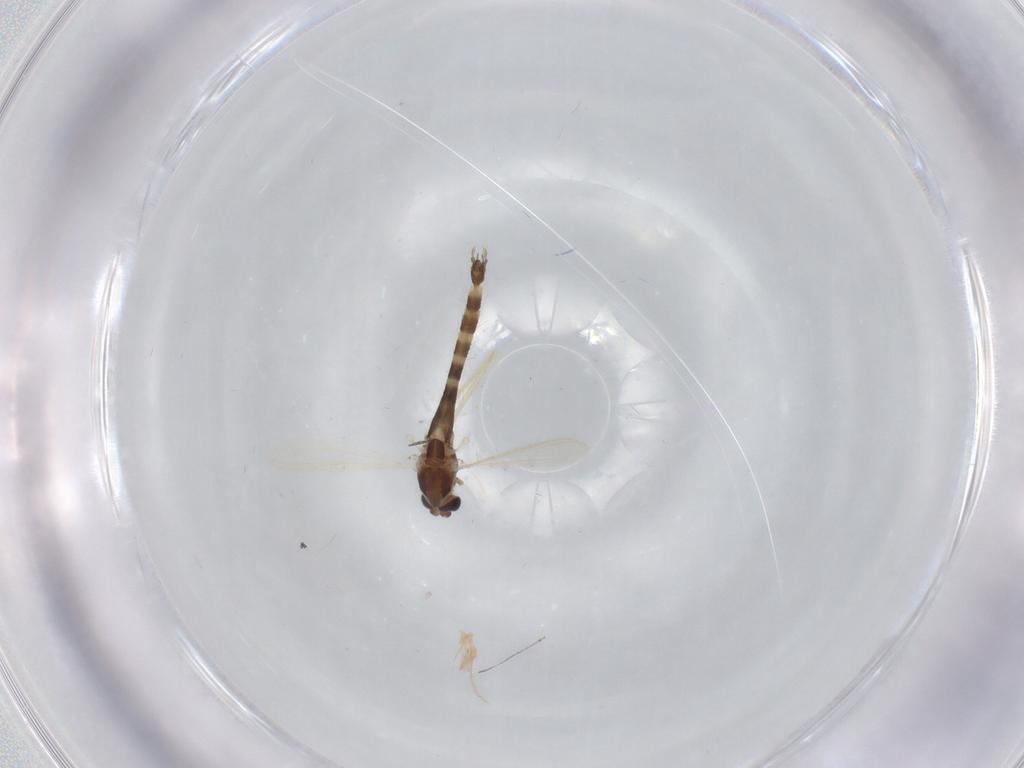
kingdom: Animalia
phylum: Arthropoda
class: Insecta
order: Diptera
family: Chironomidae
